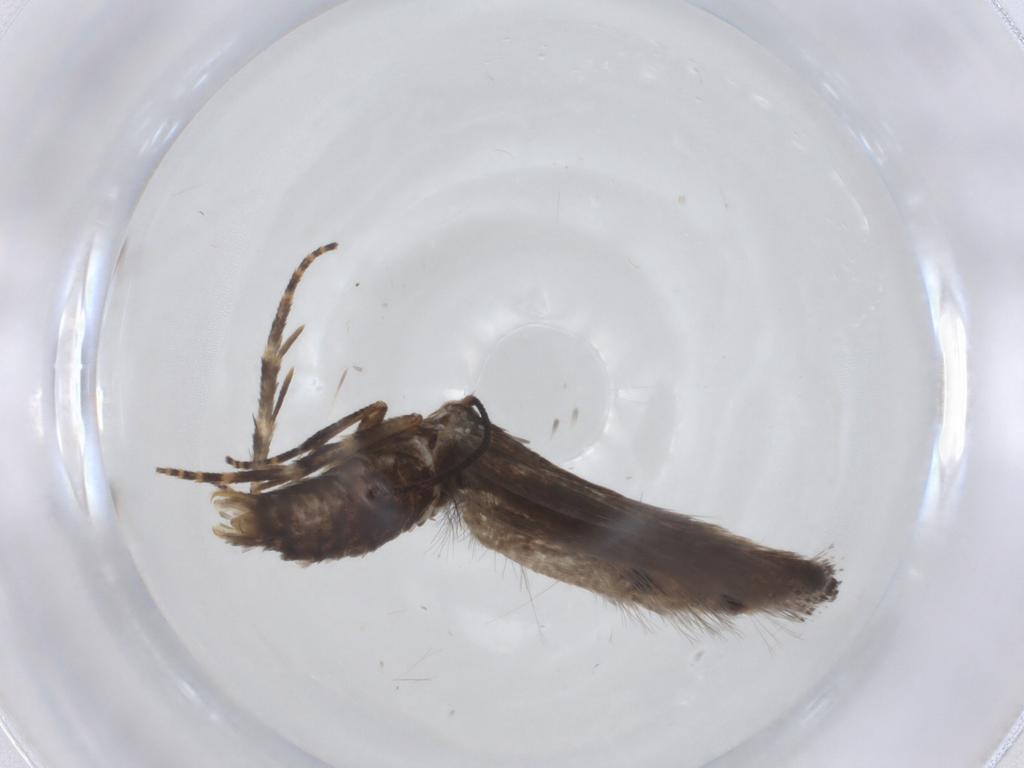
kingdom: Animalia
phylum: Arthropoda
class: Insecta
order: Lepidoptera
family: Momphidae
